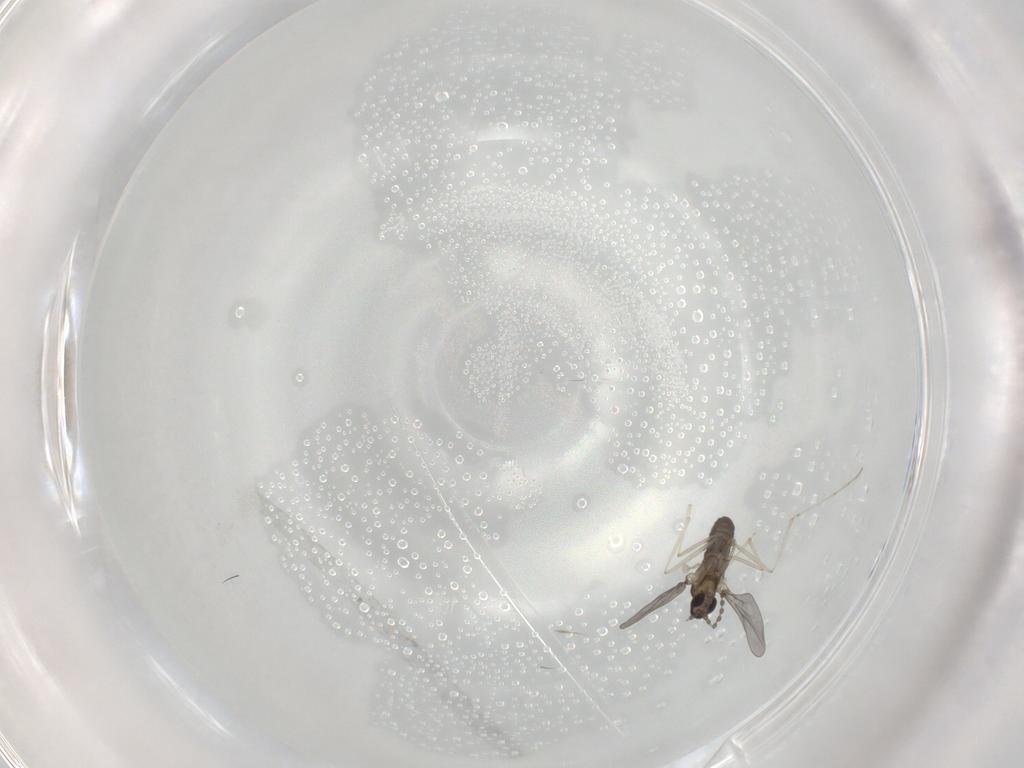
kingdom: Animalia
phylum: Arthropoda
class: Insecta
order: Diptera
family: Cecidomyiidae
